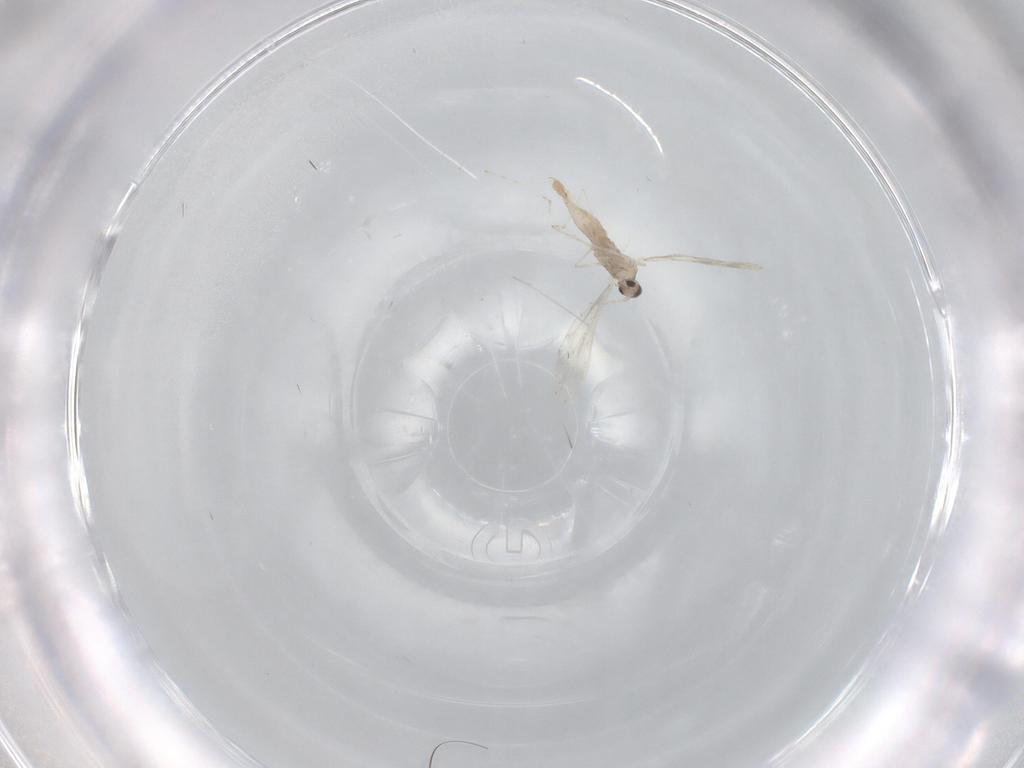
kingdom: Animalia
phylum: Arthropoda
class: Insecta
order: Diptera
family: Cecidomyiidae
